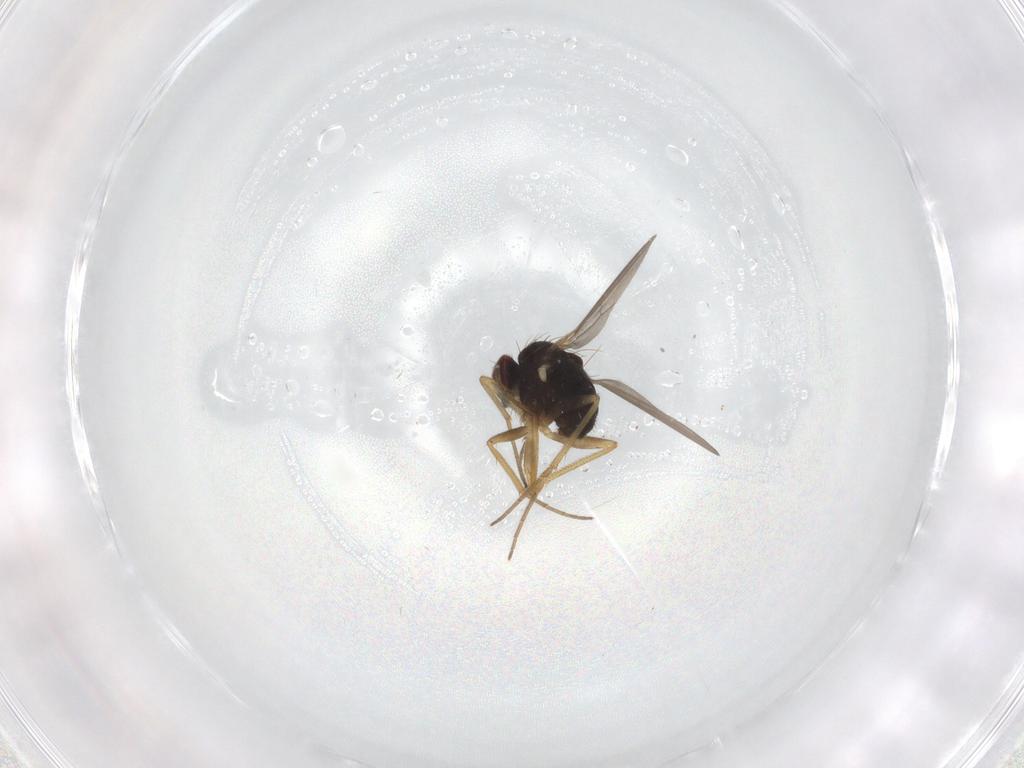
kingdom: Animalia
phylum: Arthropoda
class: Insecta
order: Diptera
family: Dolichopodidae
